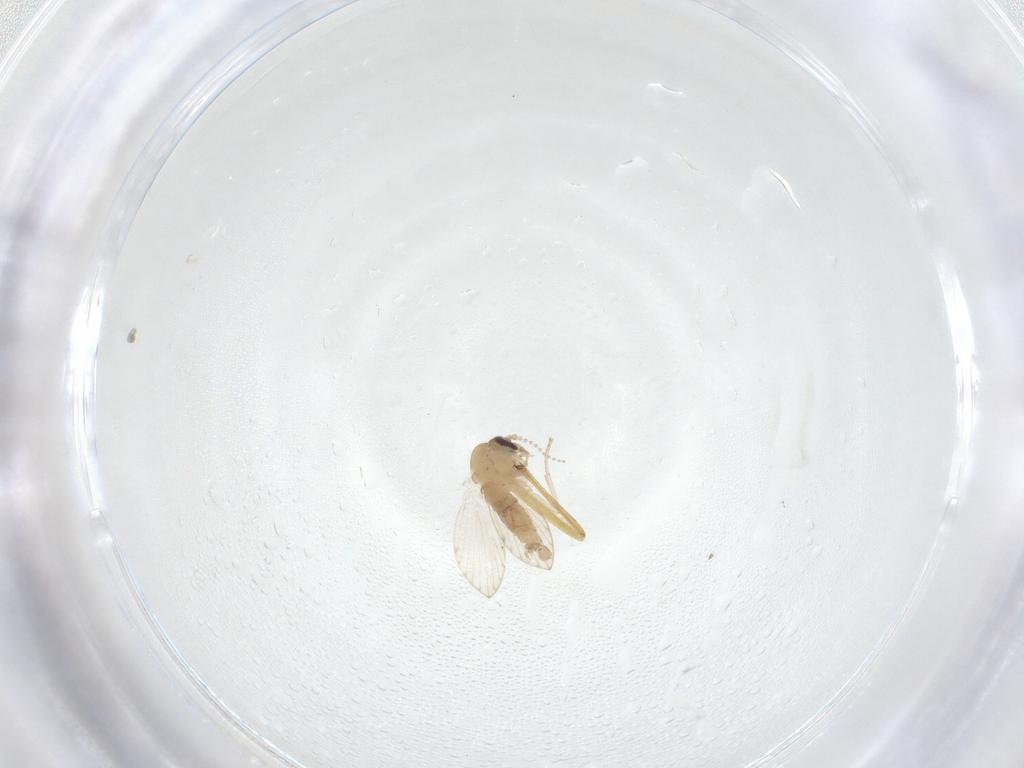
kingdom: Animalia
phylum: Arthropoda
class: Insecta
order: Diptera
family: Psychodidae
